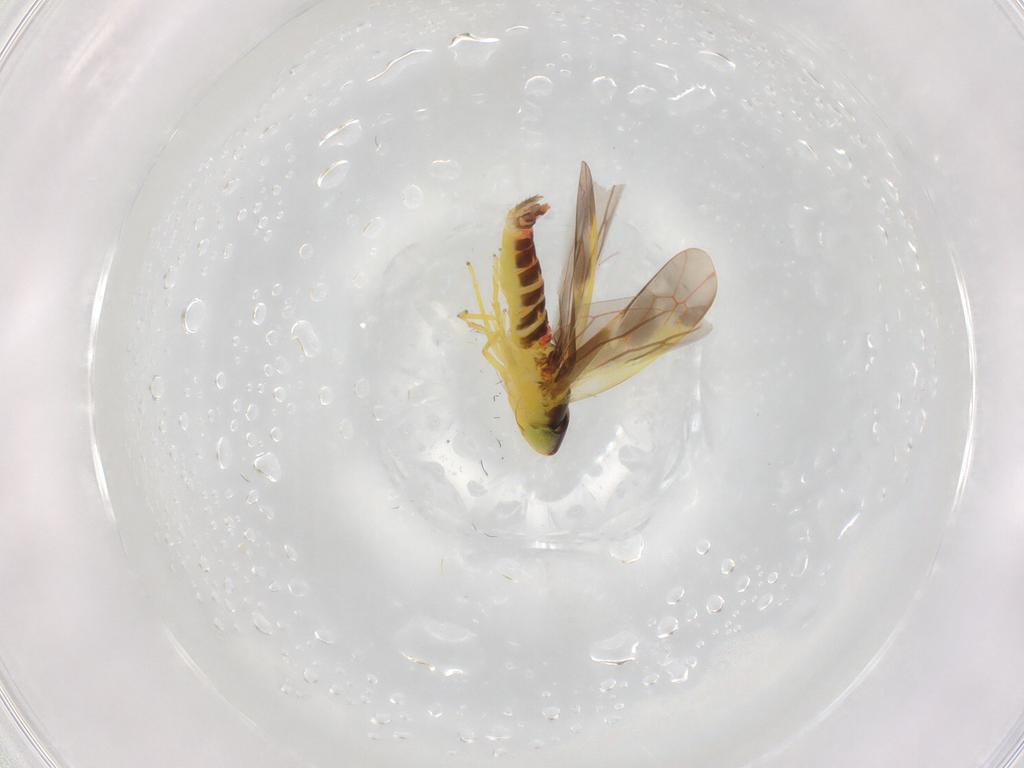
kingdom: Animalia
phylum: Arthropoda
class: Insecta
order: Hemiptera
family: Cicadellidae
